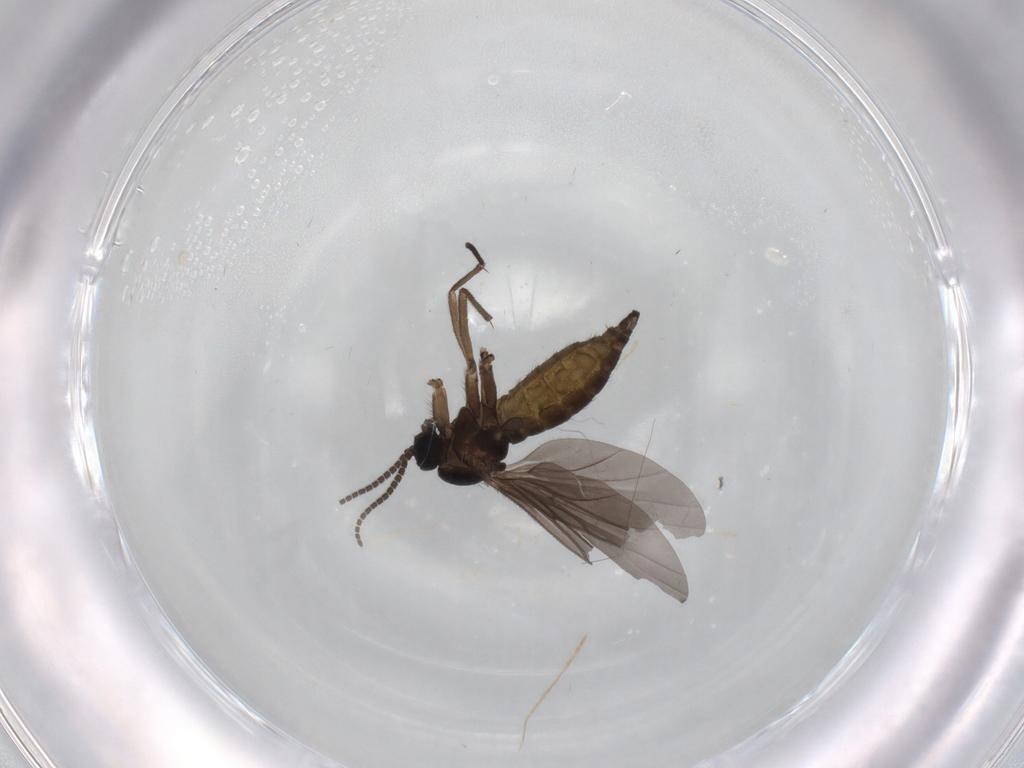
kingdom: Animalia
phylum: Arthropoda
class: Insecta
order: Diptera
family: Sciaridae
